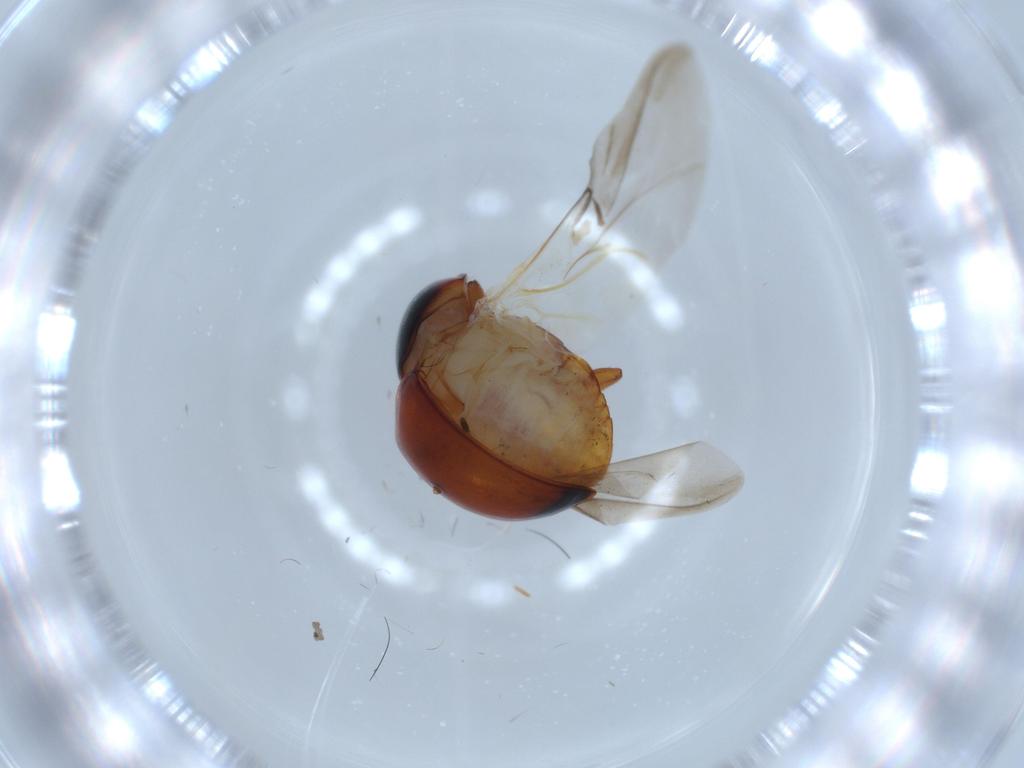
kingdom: Animalia
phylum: Arthropoda
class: Insecta
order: Coleoptera
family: Coccinellidae
